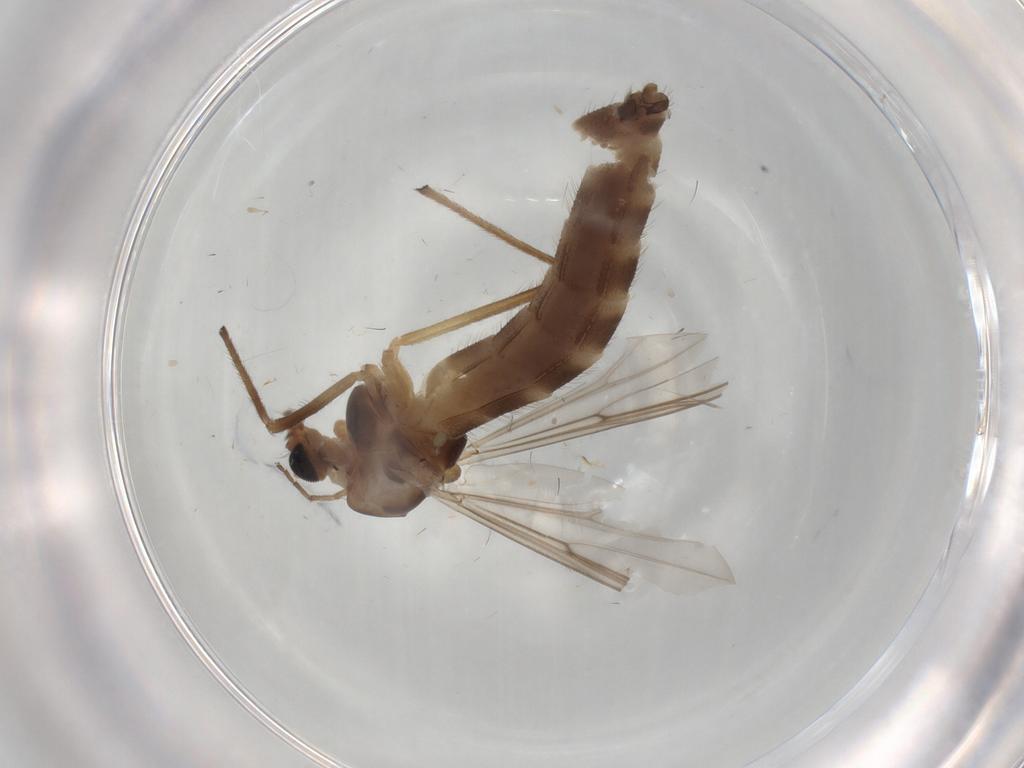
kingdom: Animalia
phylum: Arthropoda
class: Insecta
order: Diptera
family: Chironomidae
